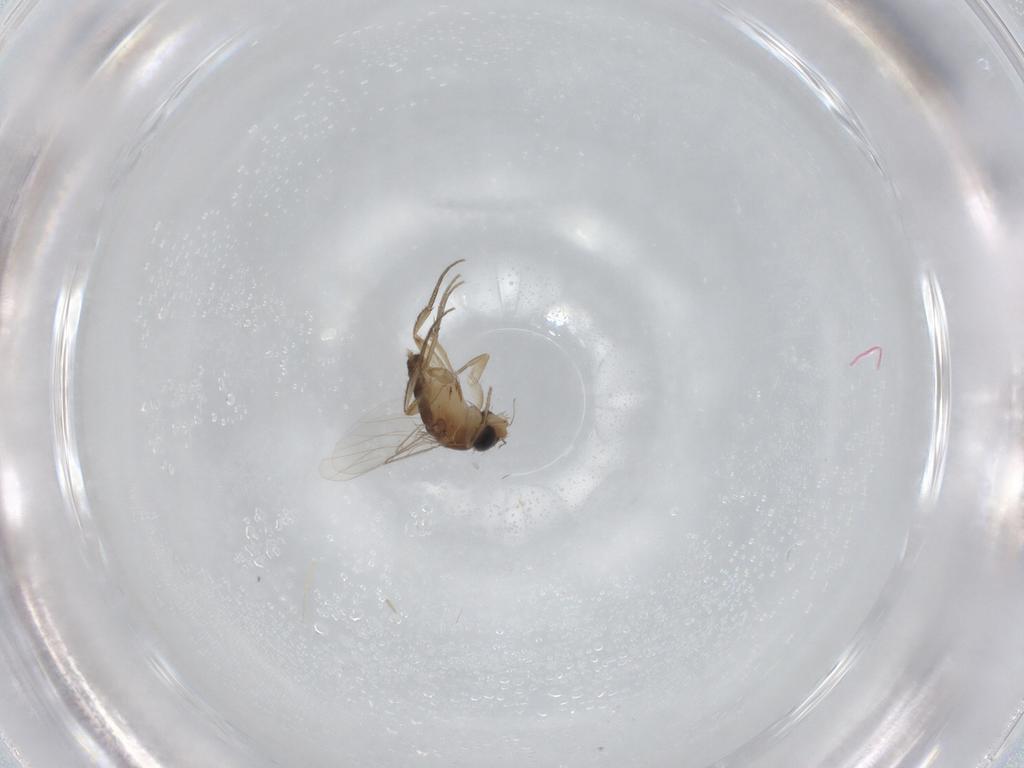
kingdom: Animalia
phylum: Arthropoda
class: Insecta
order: Diptera
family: Phoridae
